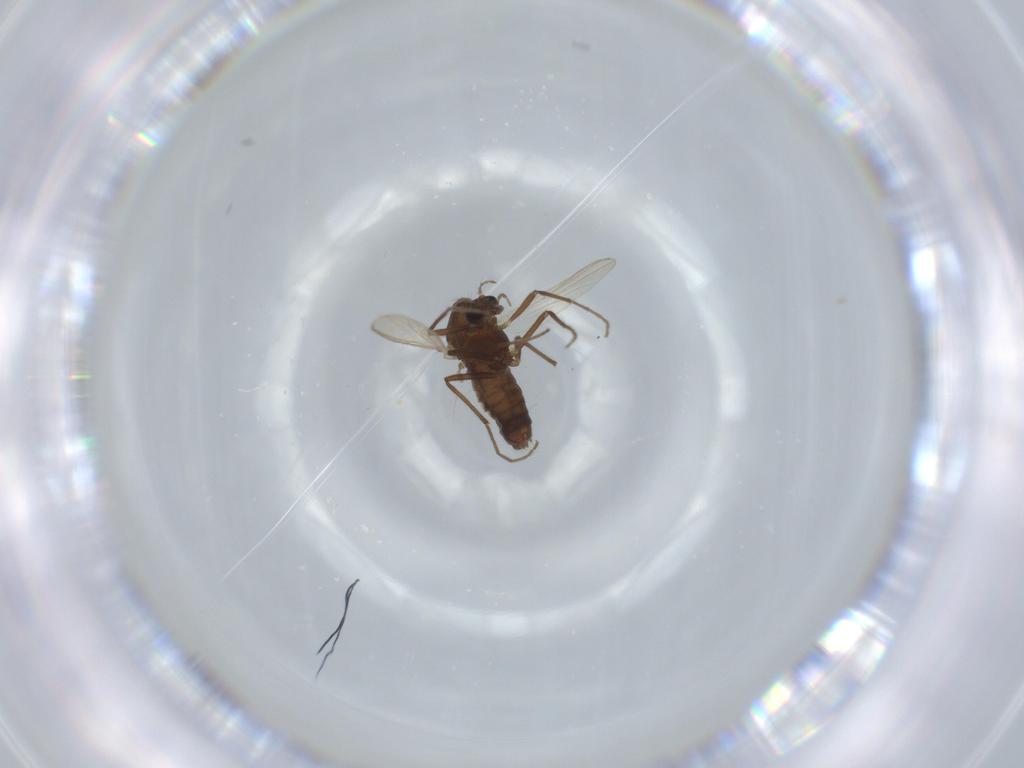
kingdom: Animalia
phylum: Arthropoda
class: Insecta
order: Diptera
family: Chironomidae
